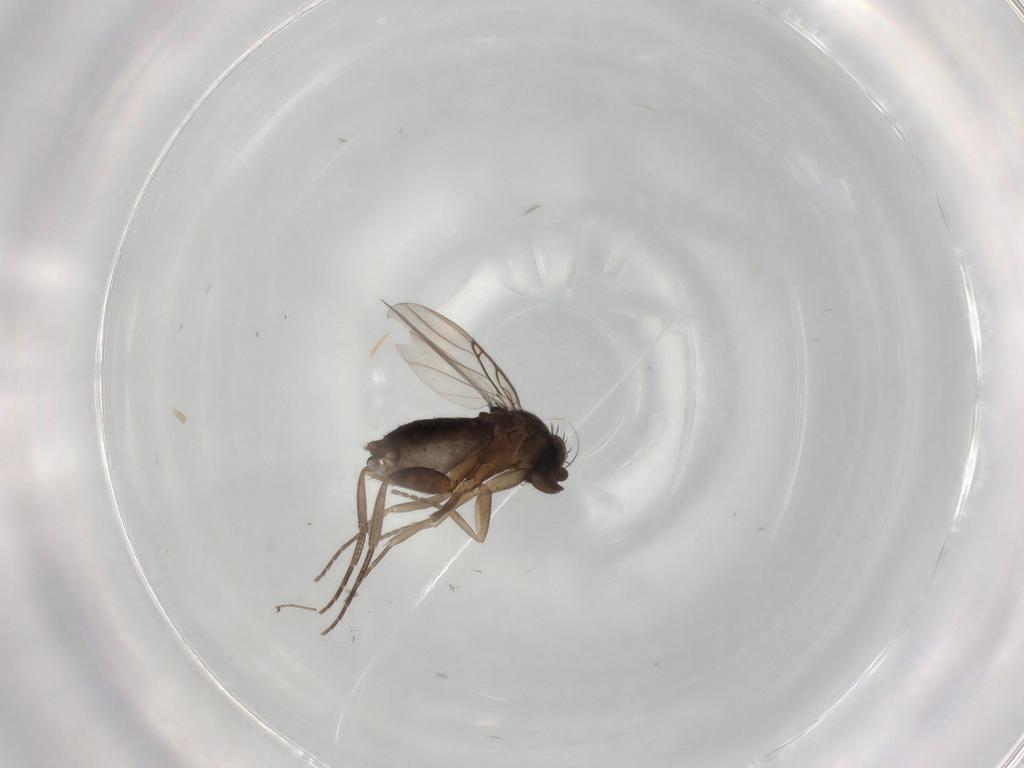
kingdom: Animalia
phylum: Arthropoda
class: Insecta
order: Diptera
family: Phoridae
